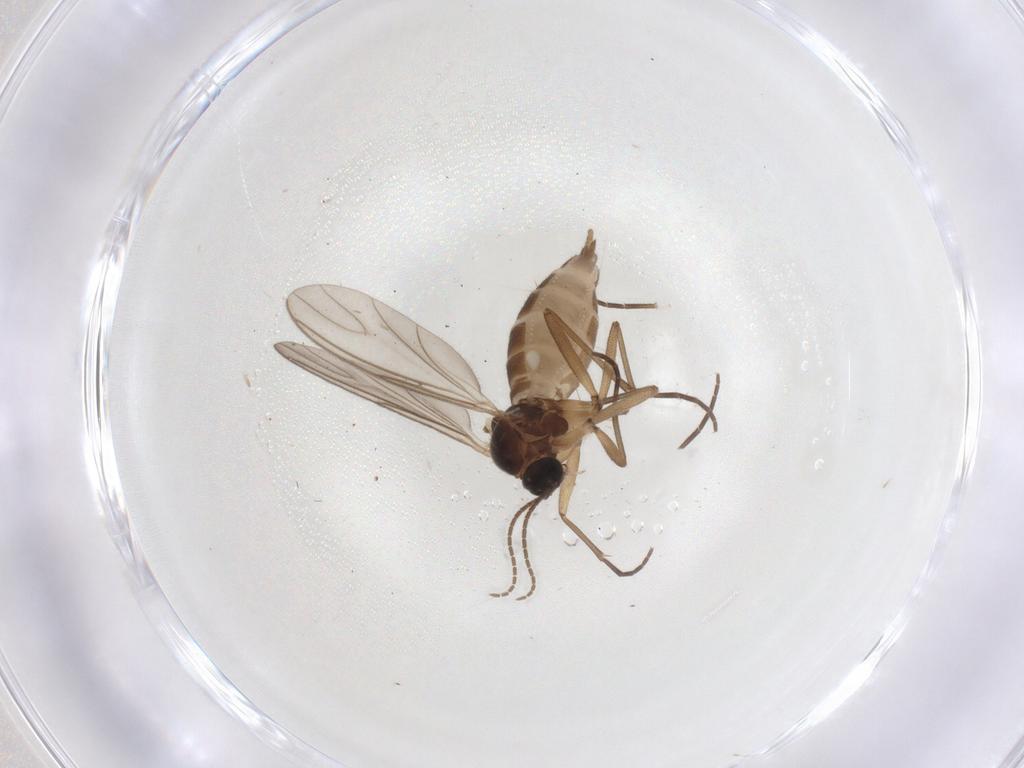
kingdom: Animalia
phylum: Arthropoda
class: Insecta
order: Diptera
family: Sciaridae
